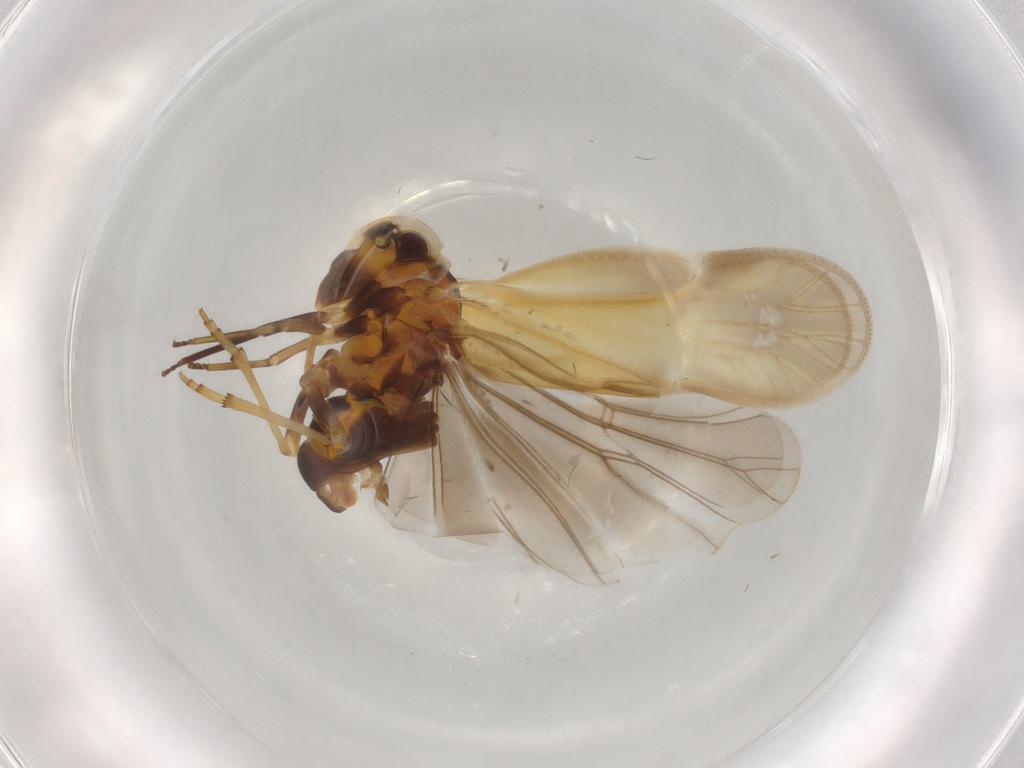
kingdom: Animalia
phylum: Arthropoda
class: Insecta
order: Hemiptera
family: Meenoplidae
